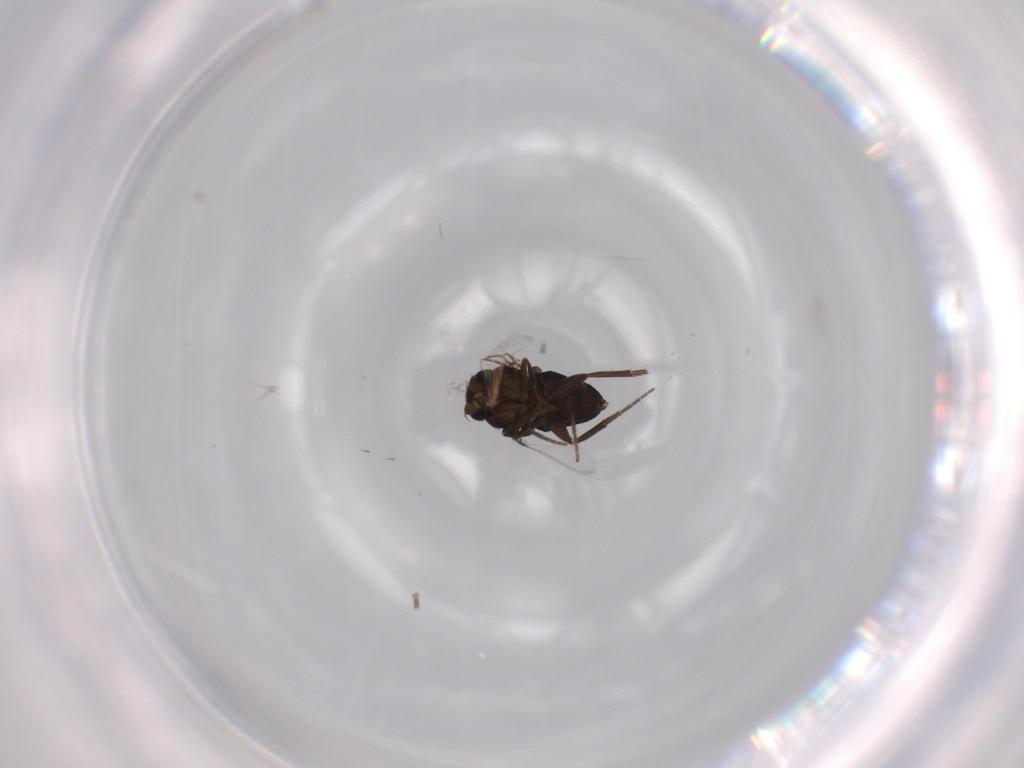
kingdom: Animalia
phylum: Arthropoda
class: Insecta
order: Diptera
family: Phoridae
